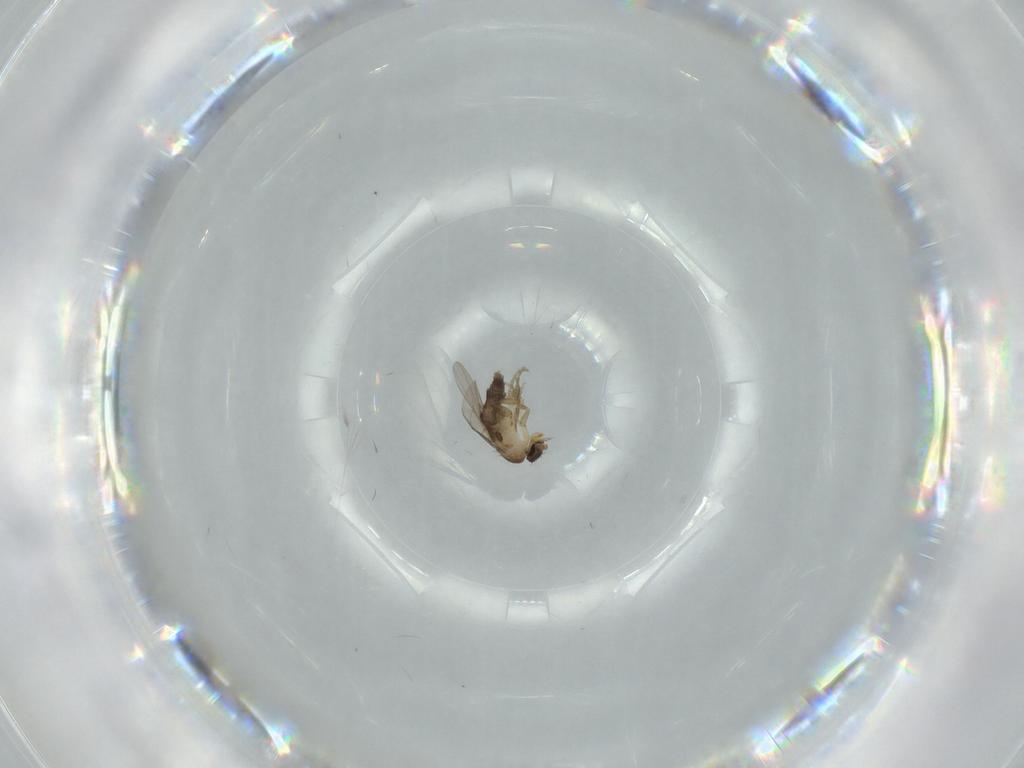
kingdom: Animalia
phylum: Arthropoda
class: Insecta
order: Diptera
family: Phoridae
